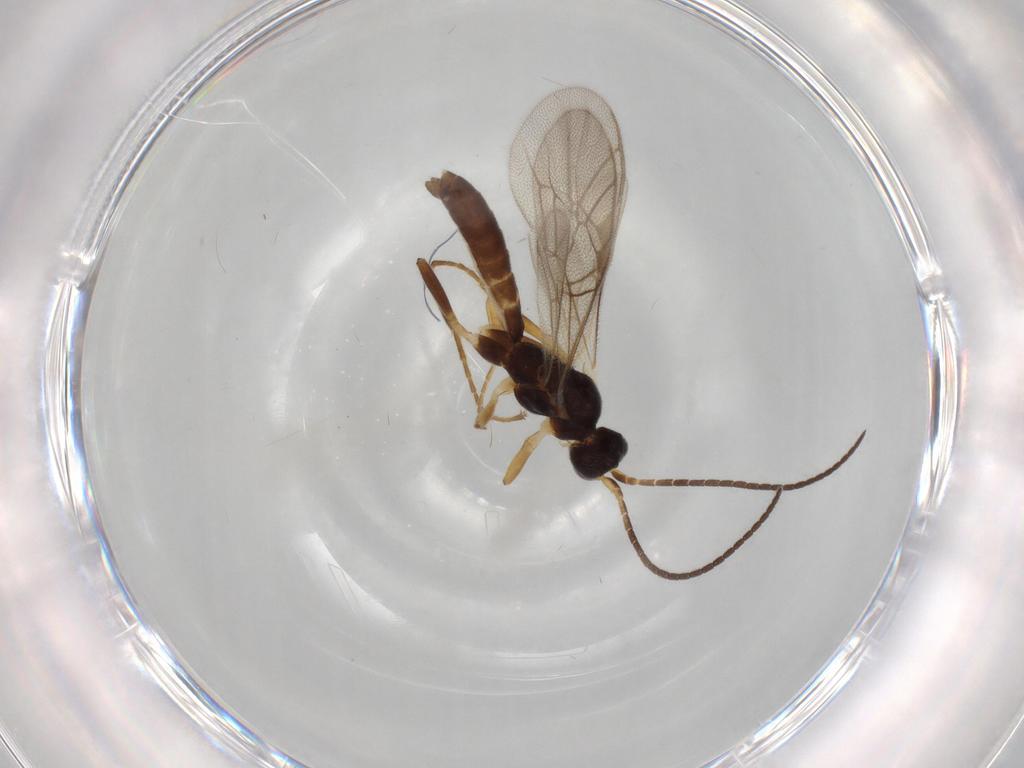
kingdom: Animalia
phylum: Arthropoda
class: Insecta
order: Hymenoptera
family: Ichneumonidae
